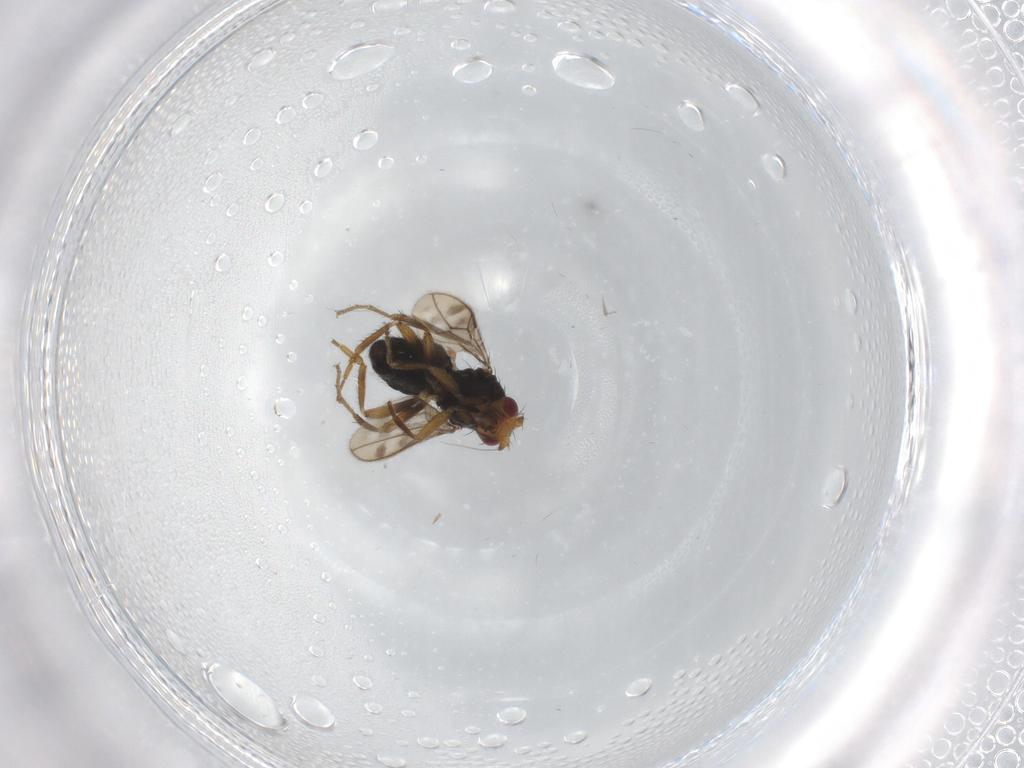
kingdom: Animalia
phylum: Arthropoda
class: Insecta
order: Diptera
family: Sphaeroceridae
